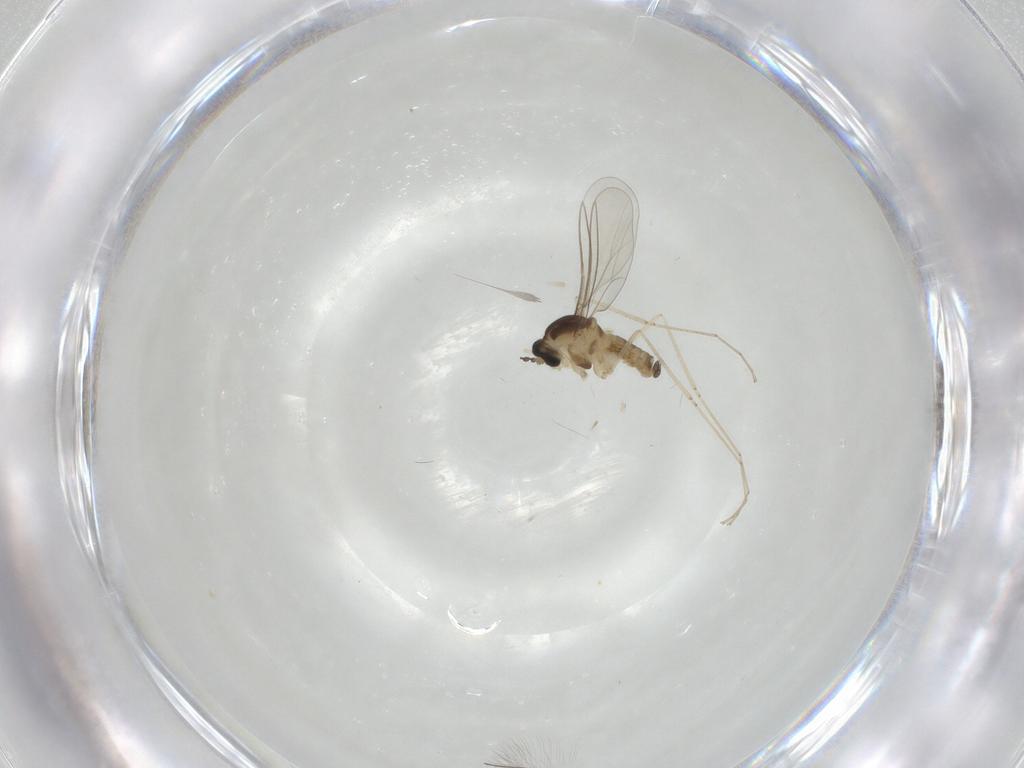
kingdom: Animalia
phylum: Arthropoda
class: Insecta
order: Diptera
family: Cecidomyiidae
